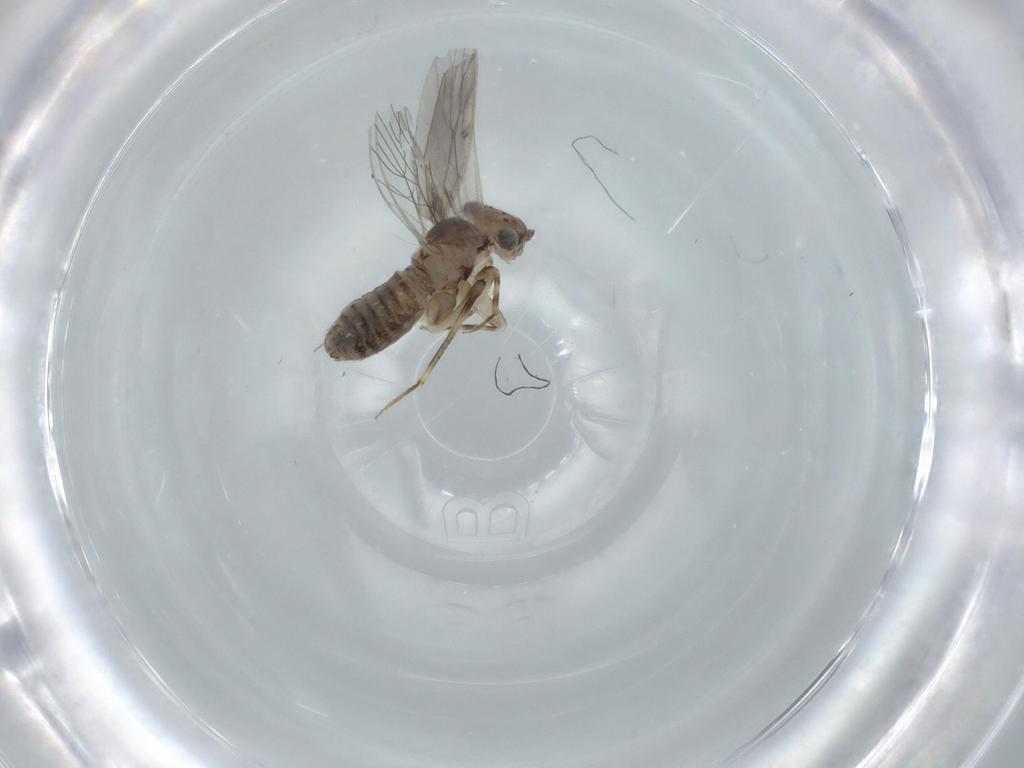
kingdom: Animalia
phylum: Arthropoda
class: Insecta
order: Psocodea
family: Lepidopsocidae
